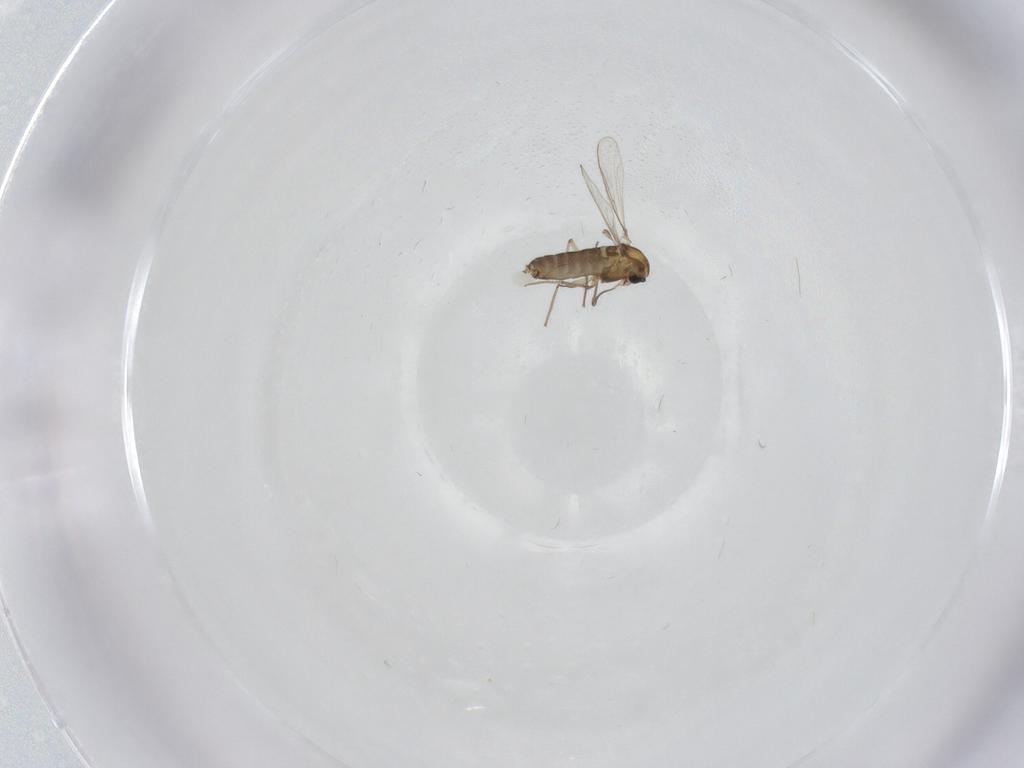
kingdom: Animalia
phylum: Arthropoda
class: Insecta
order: Diptera
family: Chironomidae
